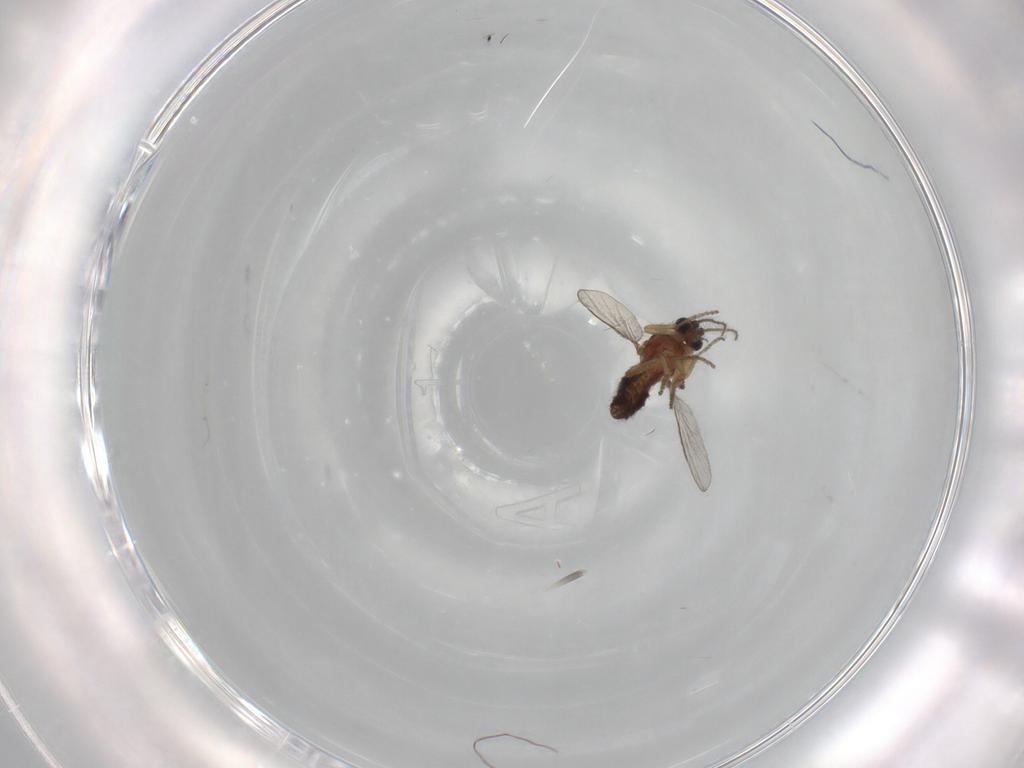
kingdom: Animalia
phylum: Arthropoda
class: Insecta
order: Diptera
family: Ceratopogonidae
